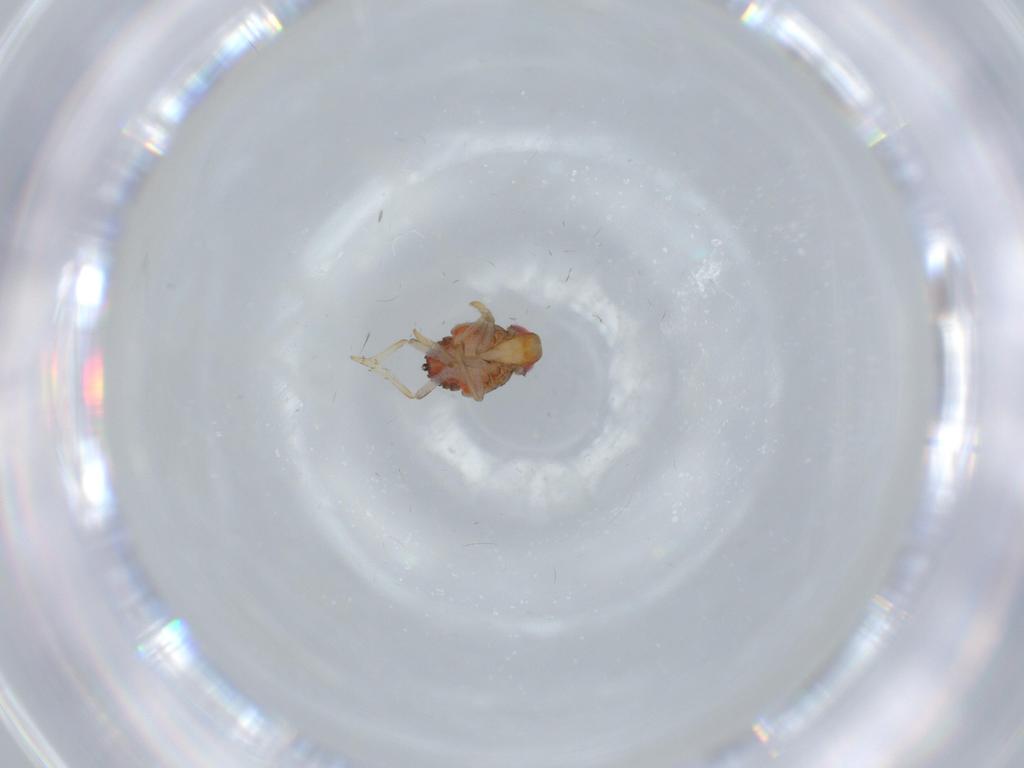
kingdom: Animalia
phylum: Arthropoda
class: Insecta
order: Hemiptera
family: Issidae
